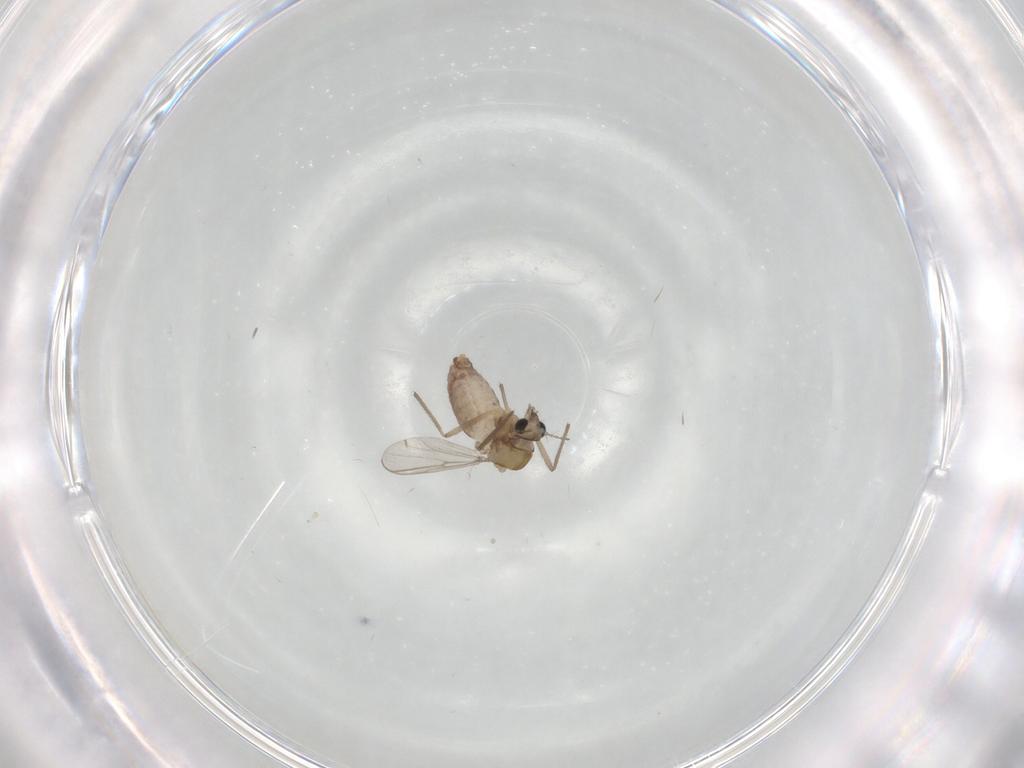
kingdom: Animalia
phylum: Arthropoda
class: Insecta
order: Diptera
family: Chironomidae
